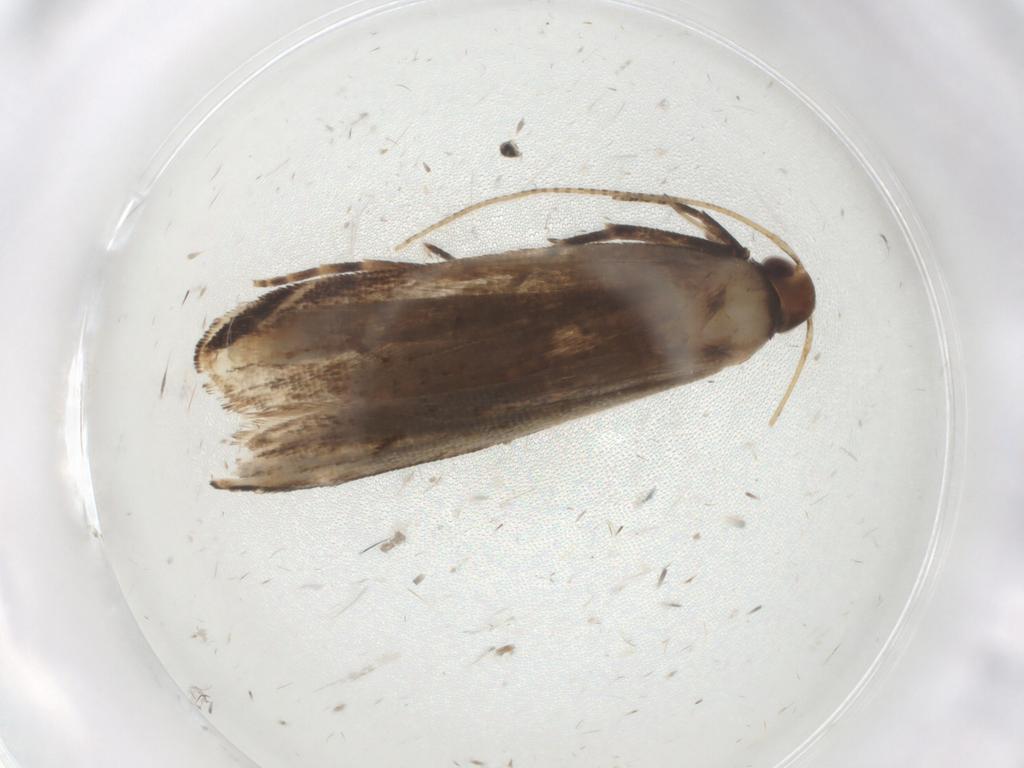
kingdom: Animalia
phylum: Arthropoda
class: Insecta
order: Lepidoptera
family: Gelechiidae
